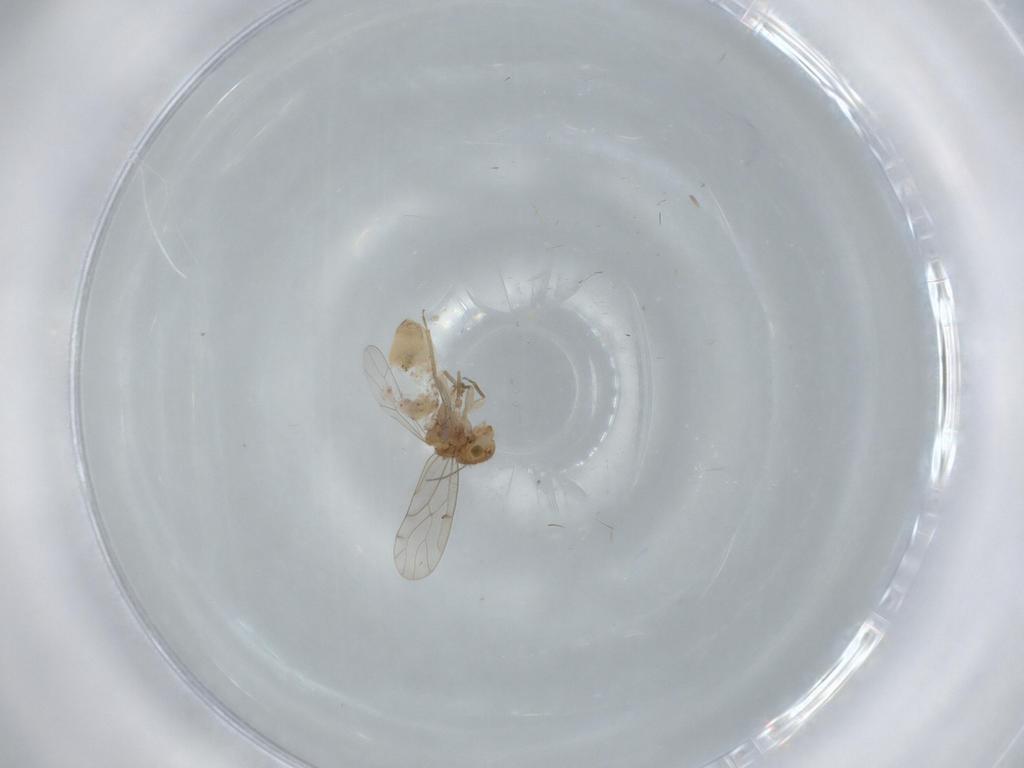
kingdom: Animalia
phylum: Arthropoda
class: Insecta
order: Psocodea
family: Ectopsocidae
